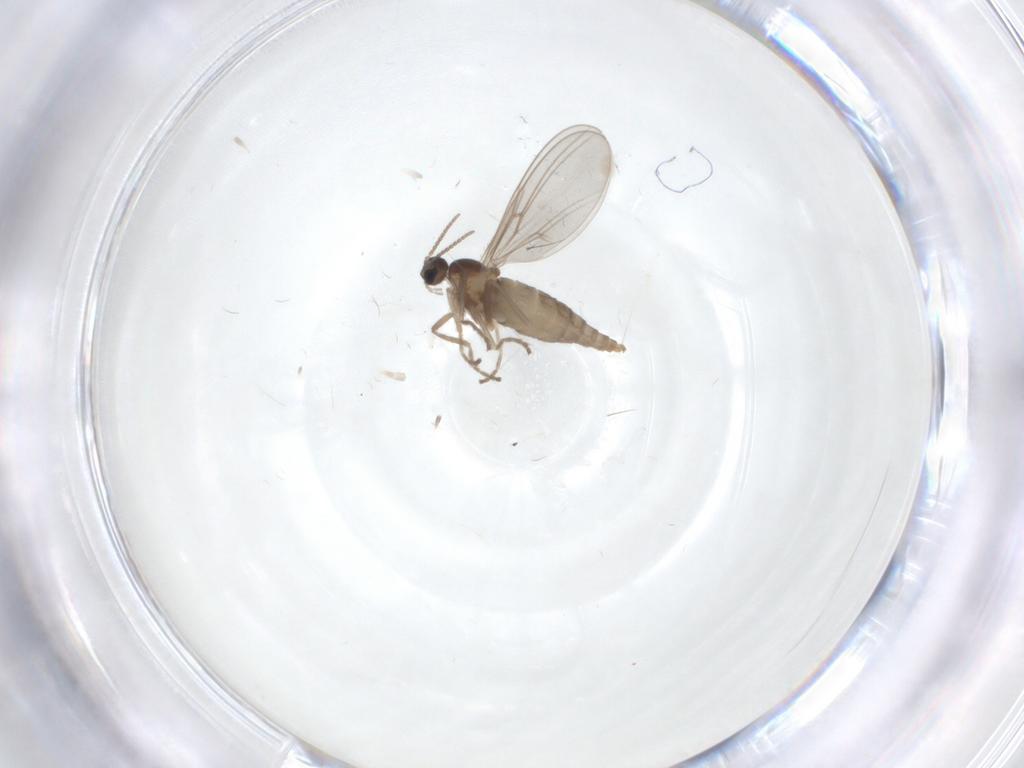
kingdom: Animalia
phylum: Arthropoda
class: Insecta
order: Diptera
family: Cecidomyiidae
